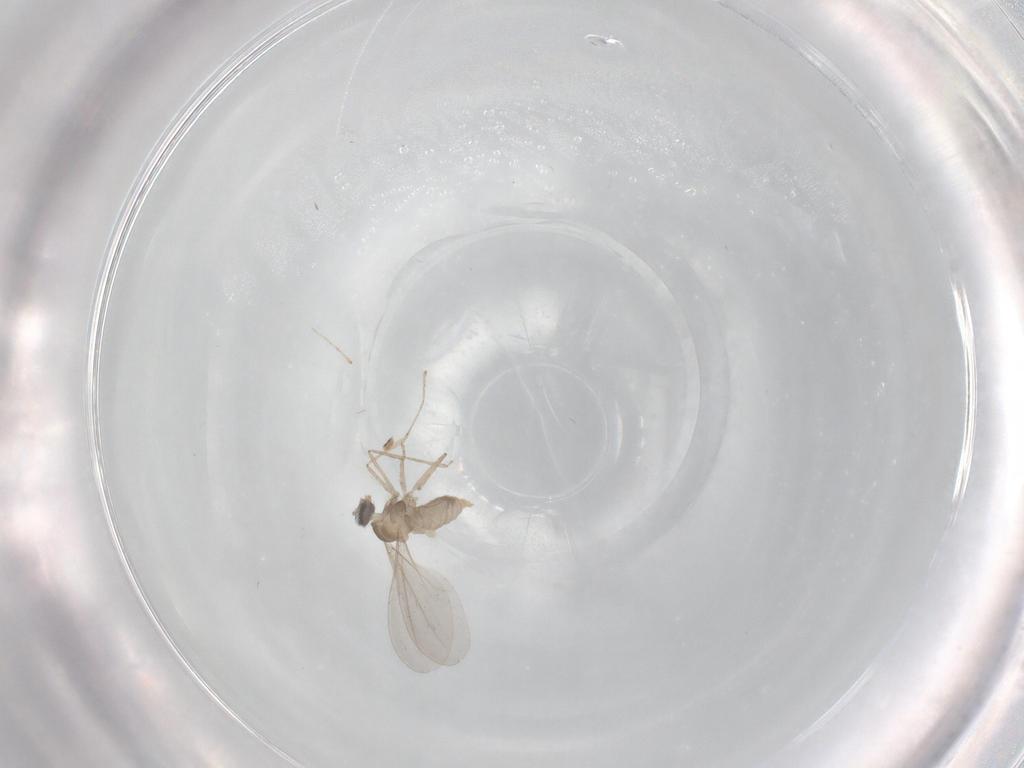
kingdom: Animalia
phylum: Arthropoda
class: Insecta
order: Diptera
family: Cecidomyiidae
